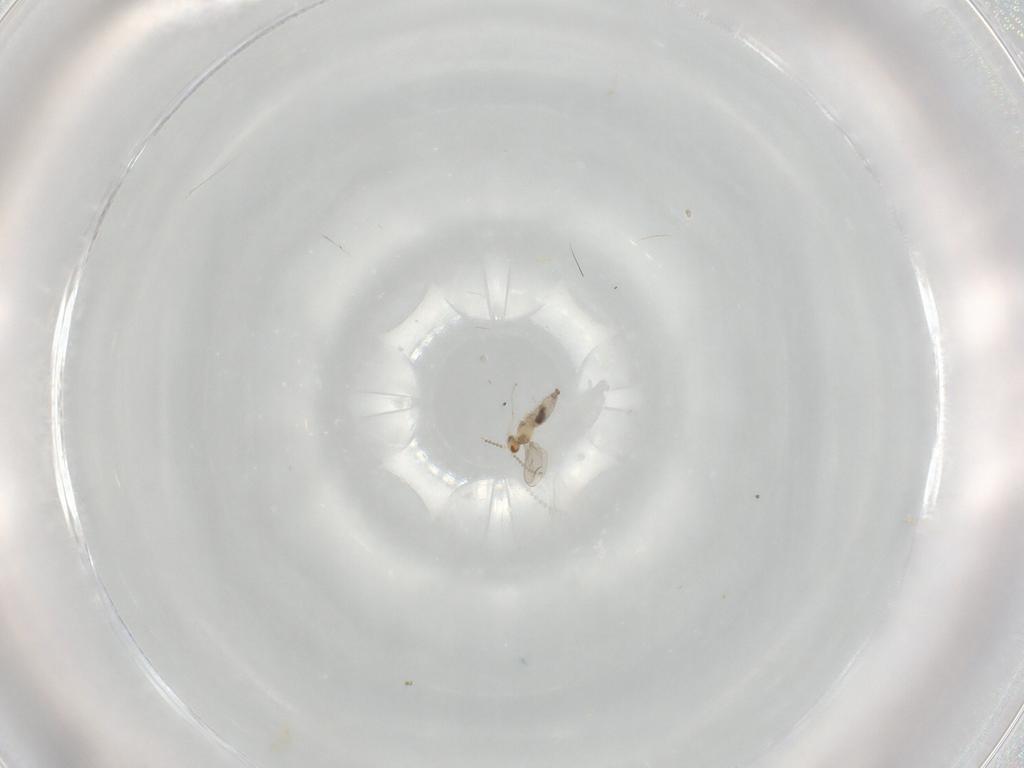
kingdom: Animalia
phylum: Arthropoda
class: Insecta
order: Diptera
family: Cecidomyiidae
